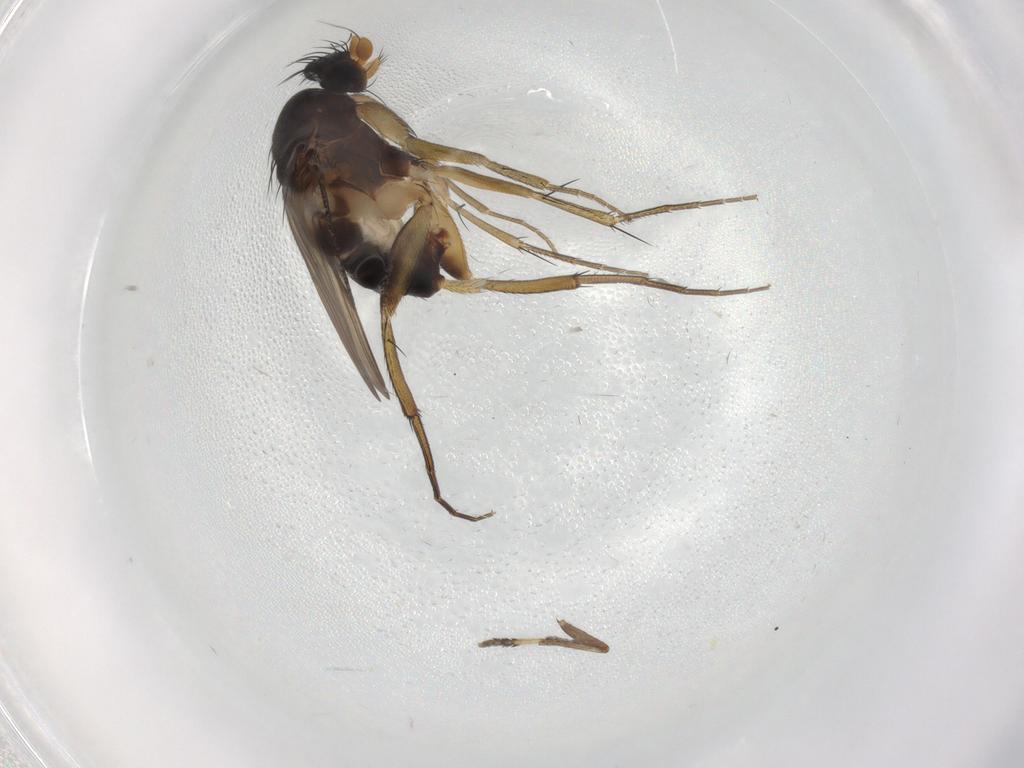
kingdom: Animalia
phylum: Arthropoda
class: Insecta
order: Diptera
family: Phoridae
